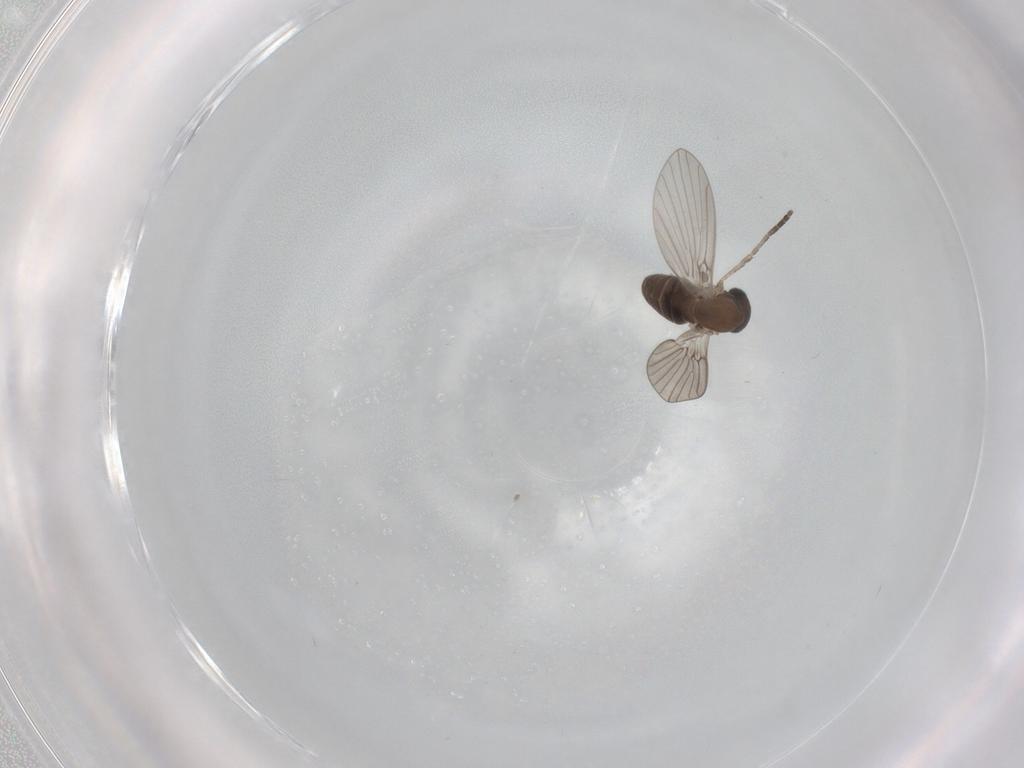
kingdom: Animalia
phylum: Arthropoda
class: Insecta
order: Diptera
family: Psychodidae
